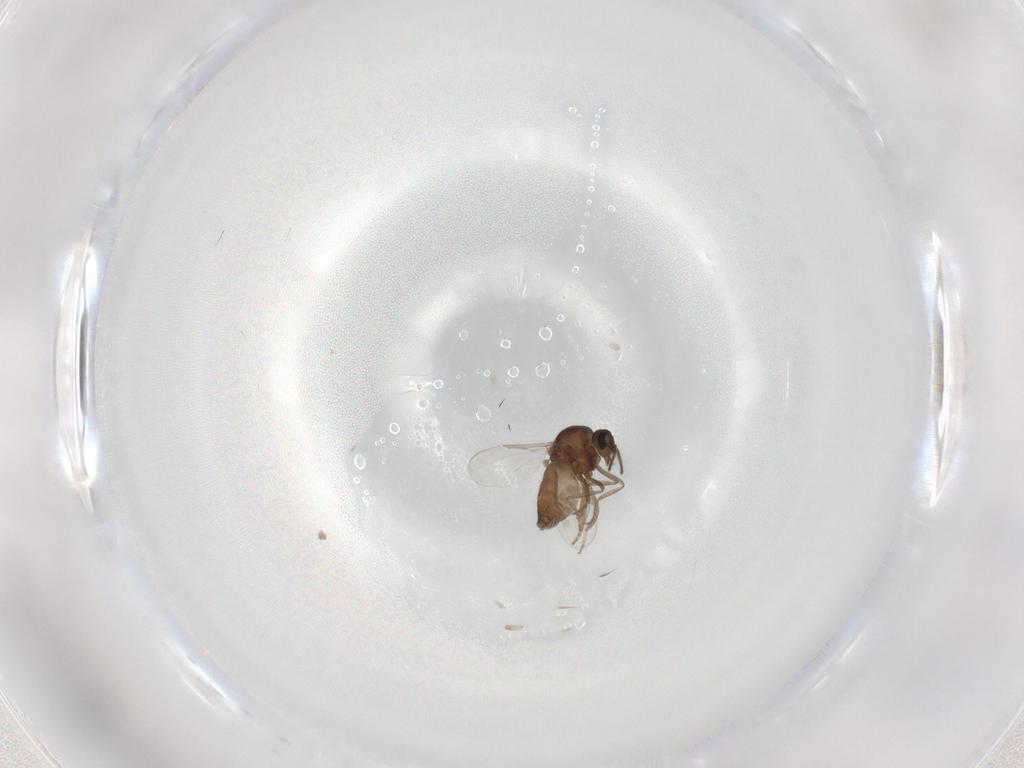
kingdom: Animalia
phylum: Arthropoda
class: Insecta
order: Diptera
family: Ceratopogonidae
